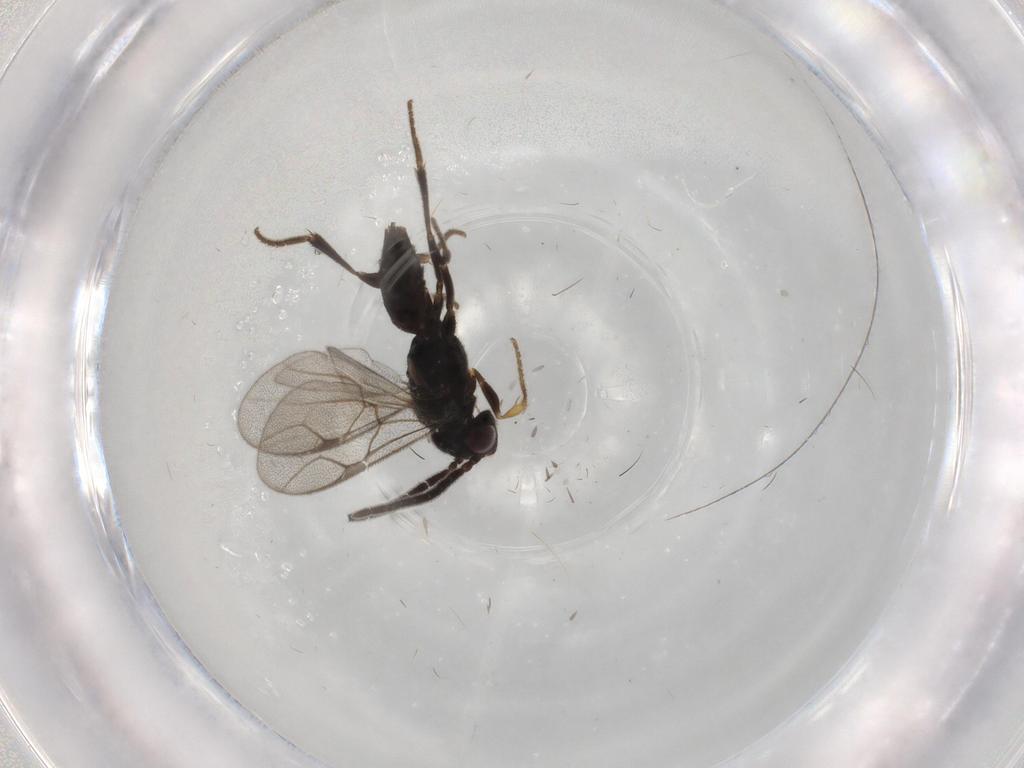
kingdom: Animalia
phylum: Arthropoda
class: Insecta
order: Hymenoptera
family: Dryinidae
